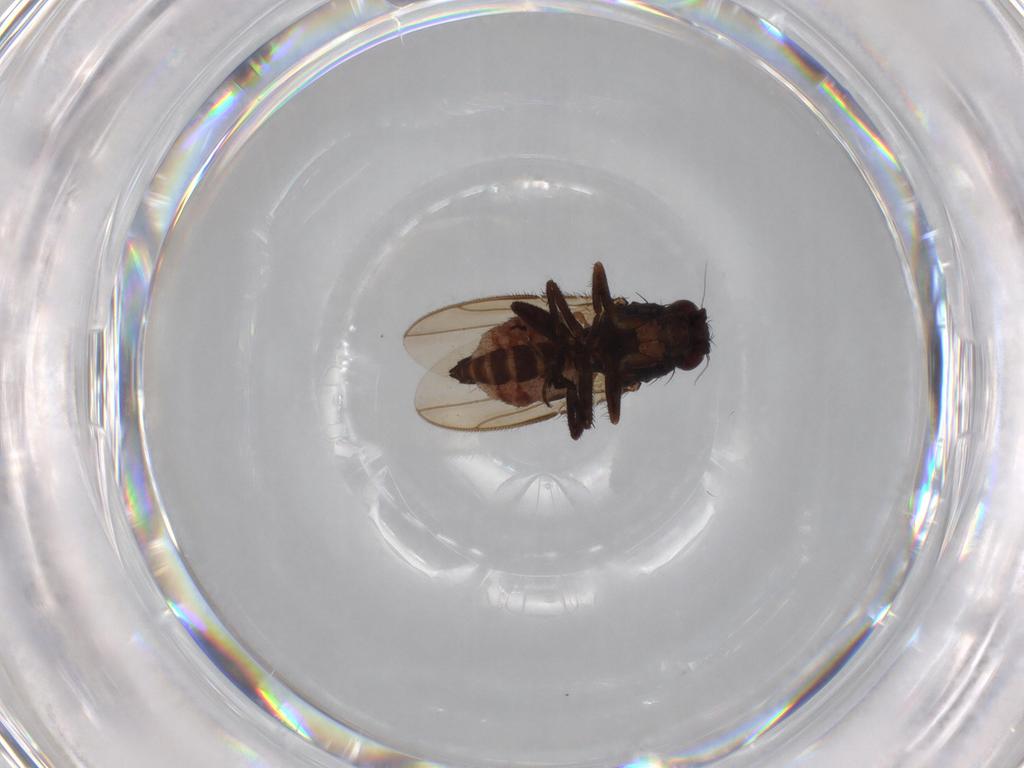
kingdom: Animalia
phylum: Arthropoda
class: Insecta
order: Diptera
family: Sphaeroceridae
